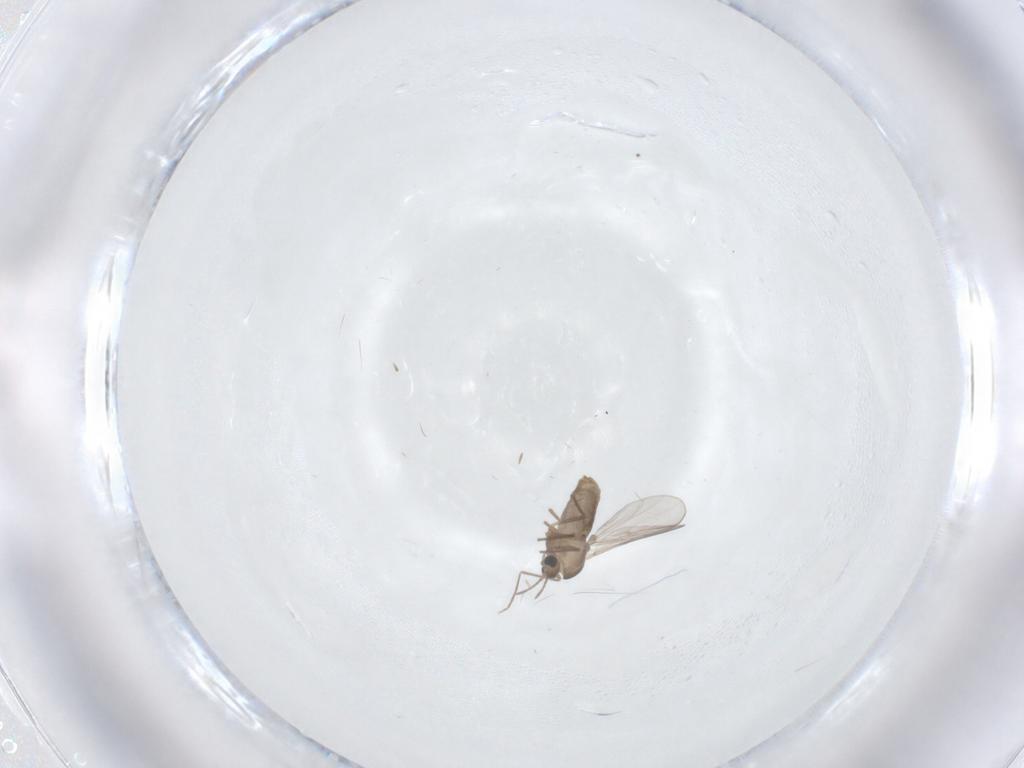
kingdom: Animalia
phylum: Arthropoda
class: Insecta
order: Diptera
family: Chironomidae
